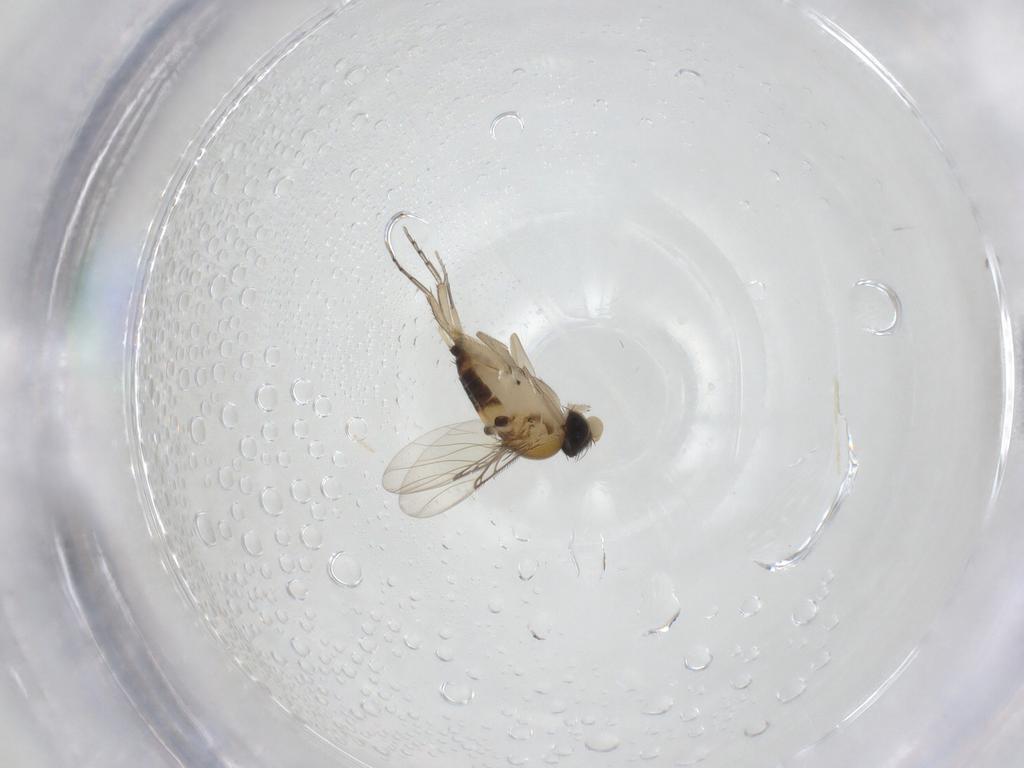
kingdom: Animalia
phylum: Arthropoda
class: Insecta
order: Diptera
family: Phoridae
